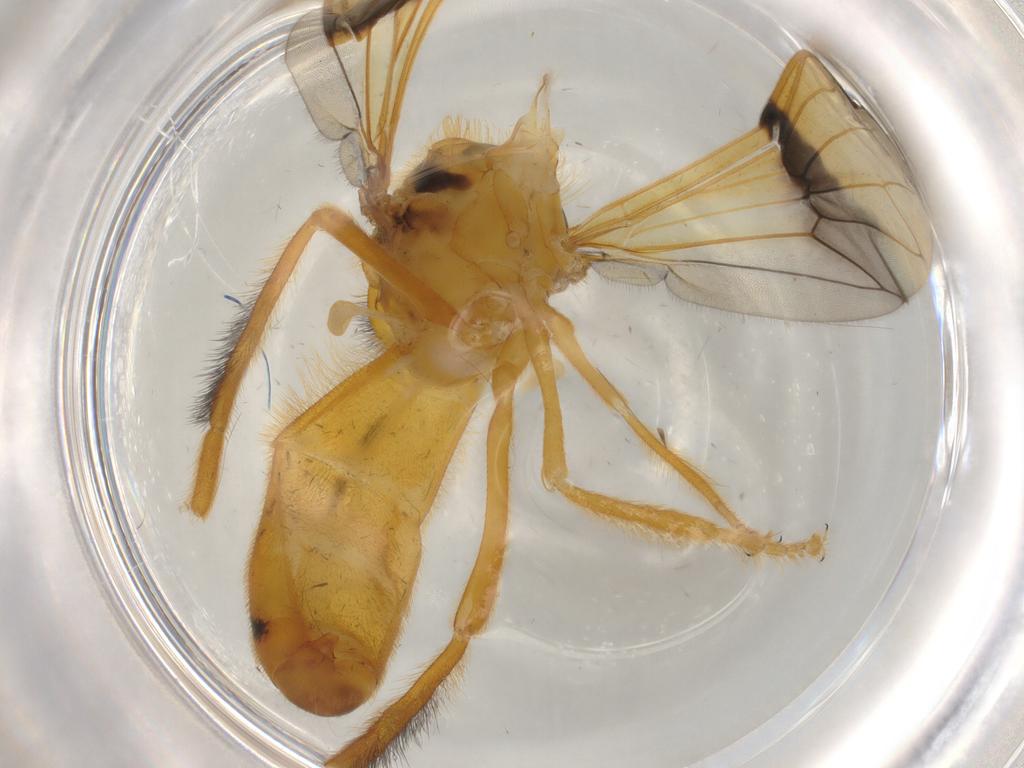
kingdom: Animalia
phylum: Arthropoda
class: Insecta
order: Diptera
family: Syrphidae
